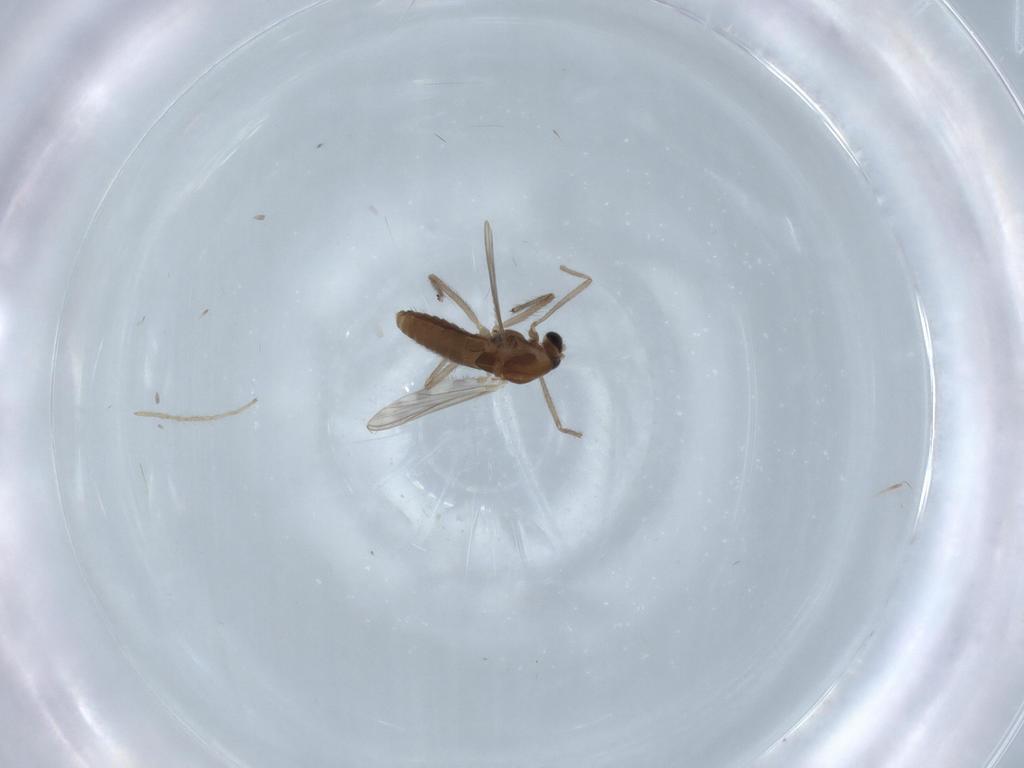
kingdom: Animalia
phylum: Arthropoda
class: Insecta
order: Diptera
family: Chironomidae
